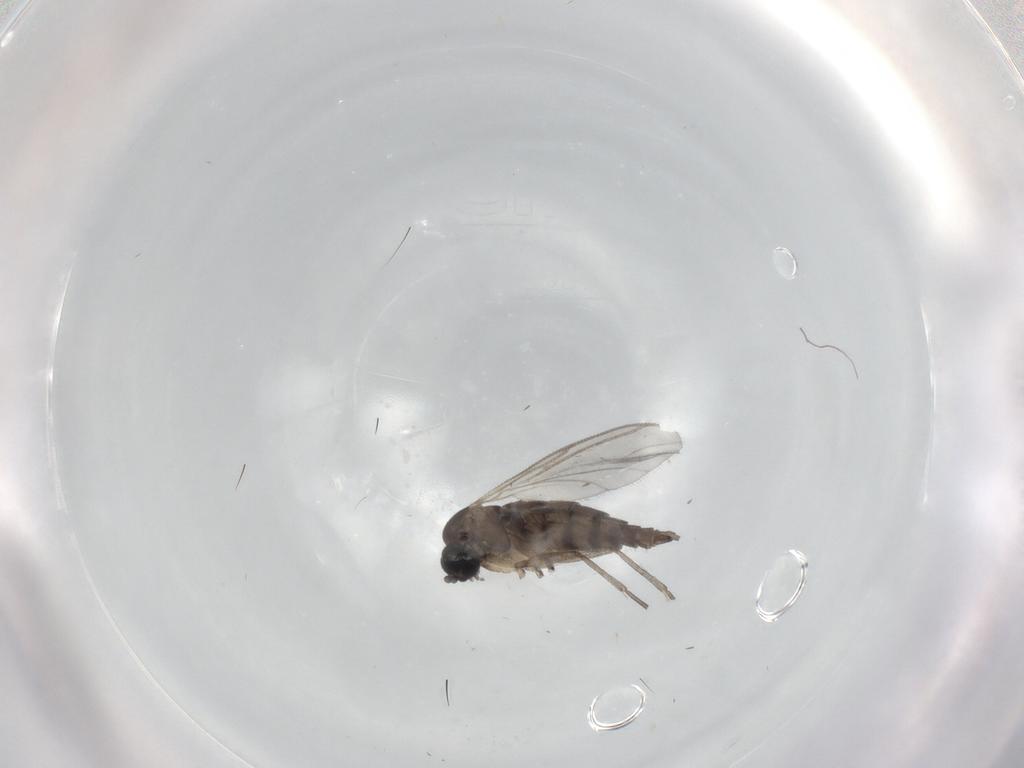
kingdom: Animalia
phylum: Arthropoda
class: Insecta
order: Diptera
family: Sciaridae
